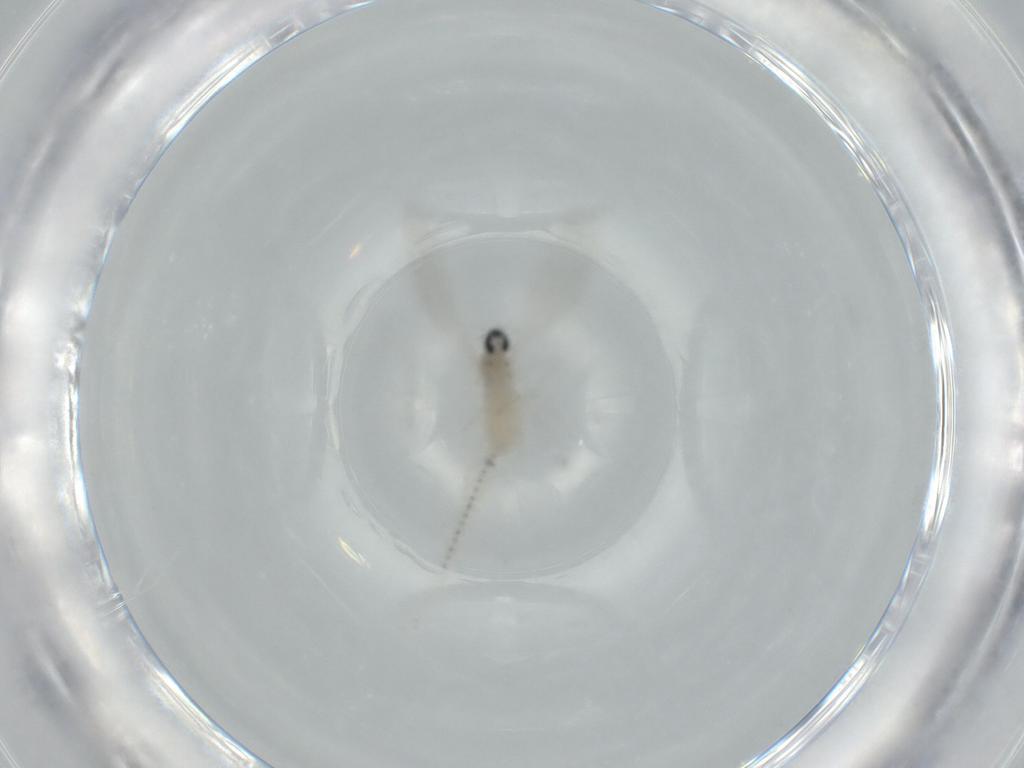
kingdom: Animalia
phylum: Arthropoda
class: Insecta
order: Diptera
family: Cecidomyiidae
